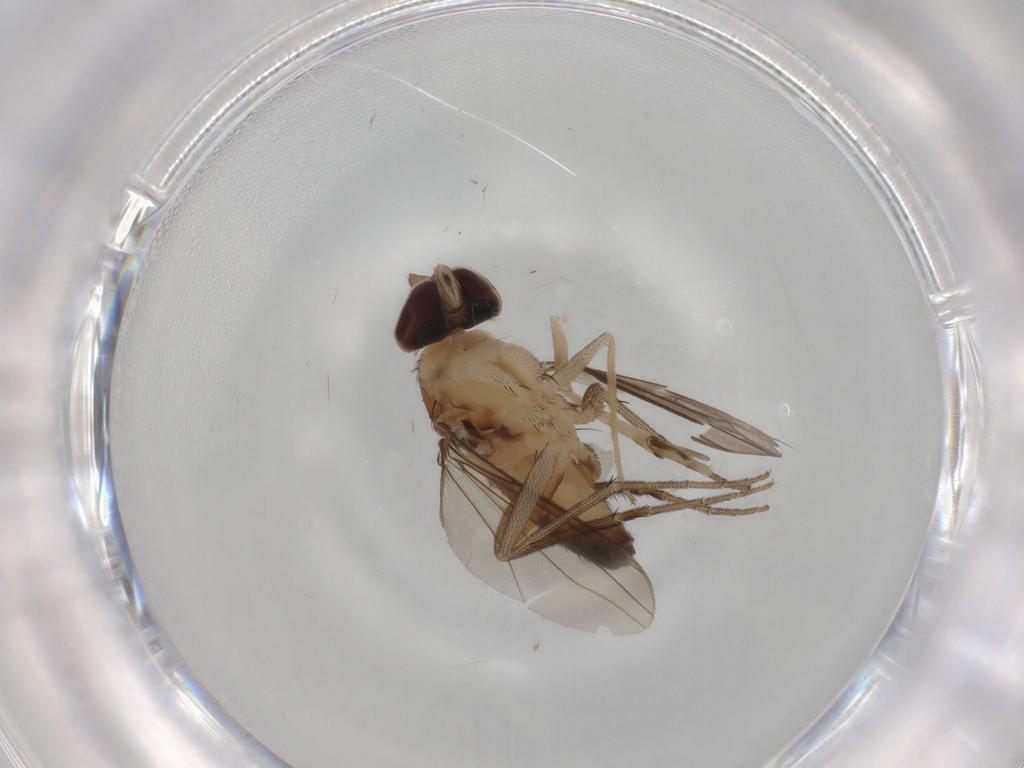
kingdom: Animalia
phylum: Arthropoda
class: Insecta
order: Diptera
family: Dolichopodidae
